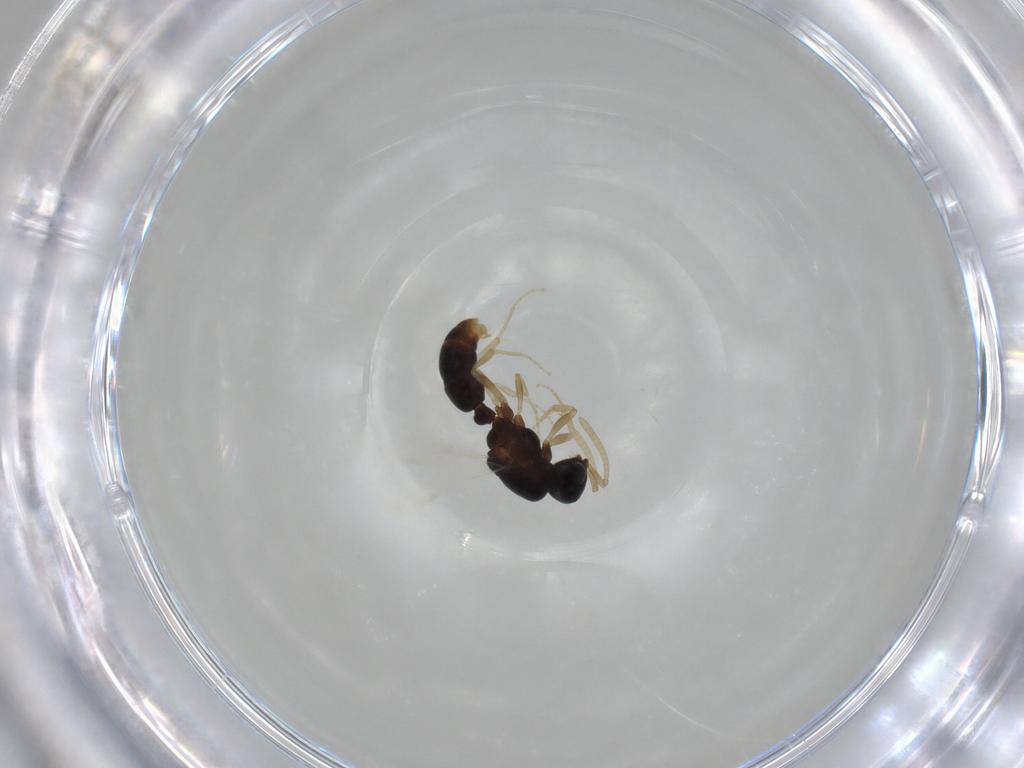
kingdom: Animalia
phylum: Arthropoda
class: Insecta
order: Hymenoptera
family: Formicidae
